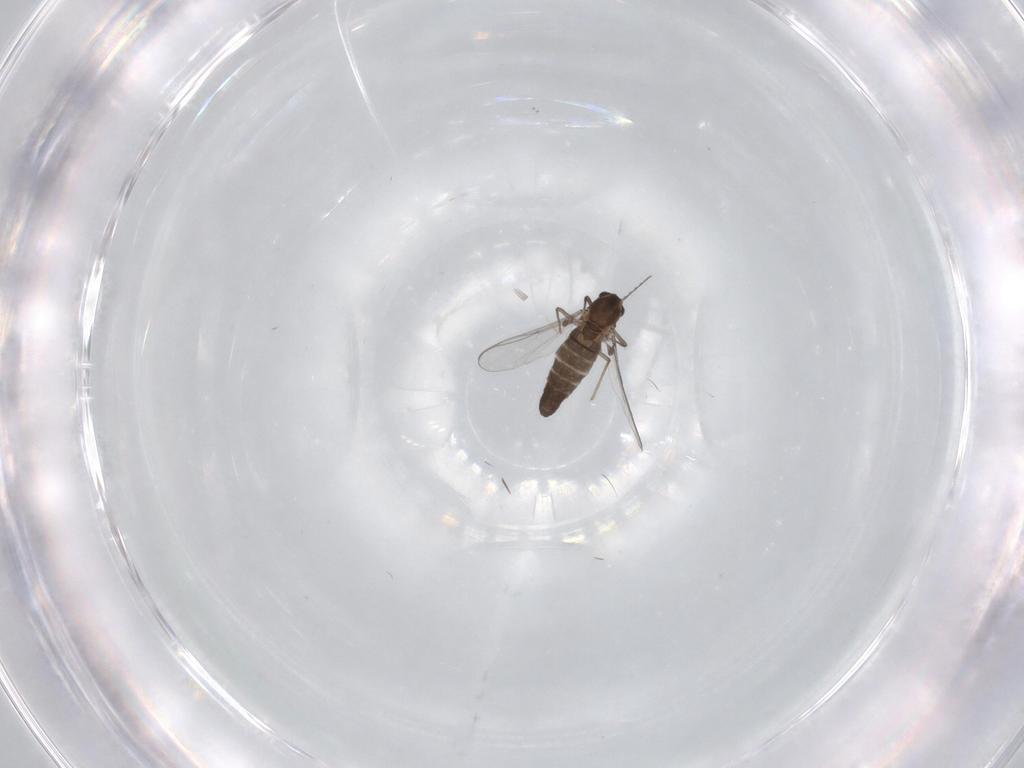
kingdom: Animalia
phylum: Arthropoda
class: Insecta
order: Diptera
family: Chironomidae
